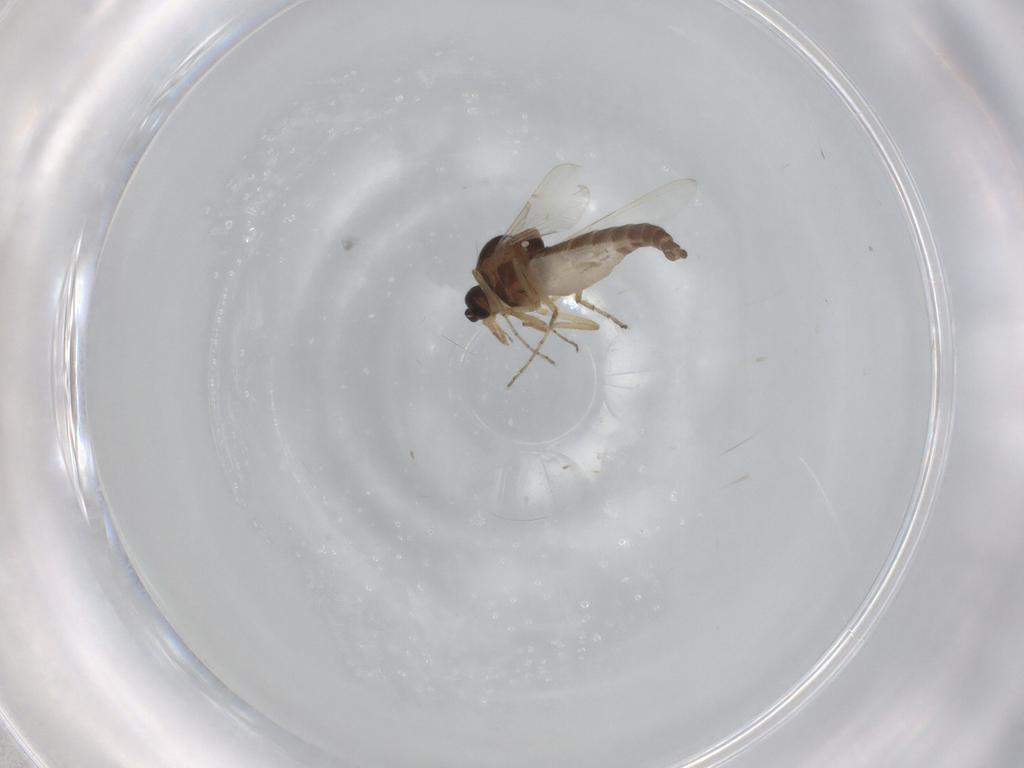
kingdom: Animalia
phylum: Arthropoda
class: Insecta
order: Diptera
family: Ceratopogonidae
